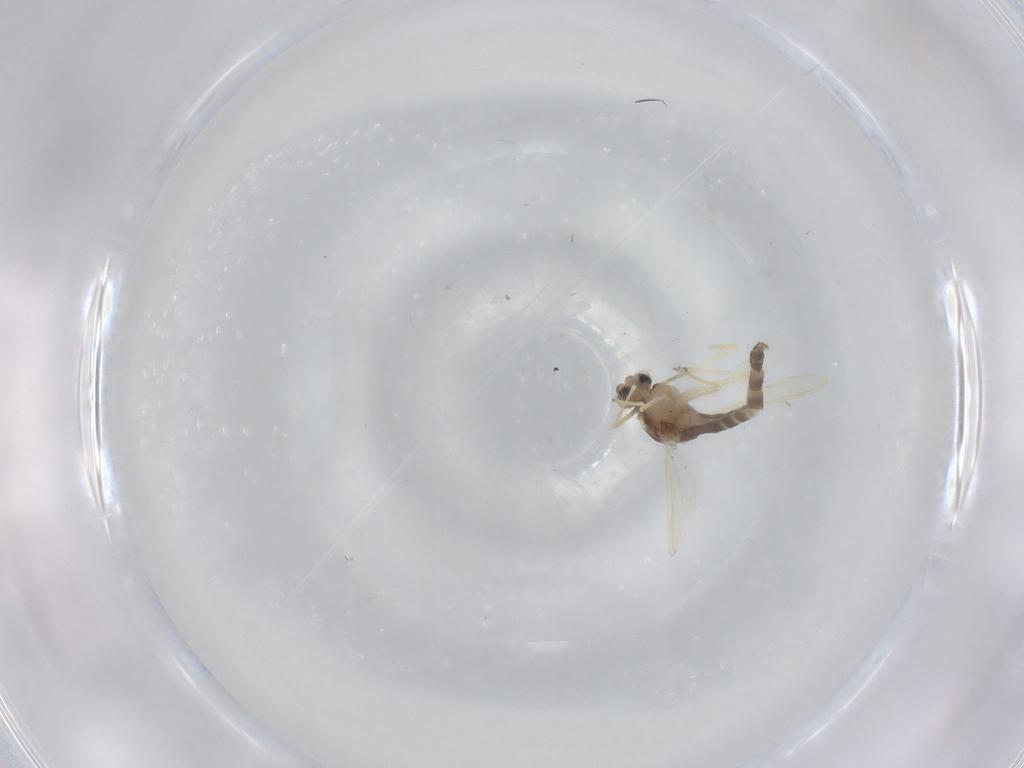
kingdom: Animalia
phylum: Arthropoda
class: Insecta
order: Diptera
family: Chironomidae
